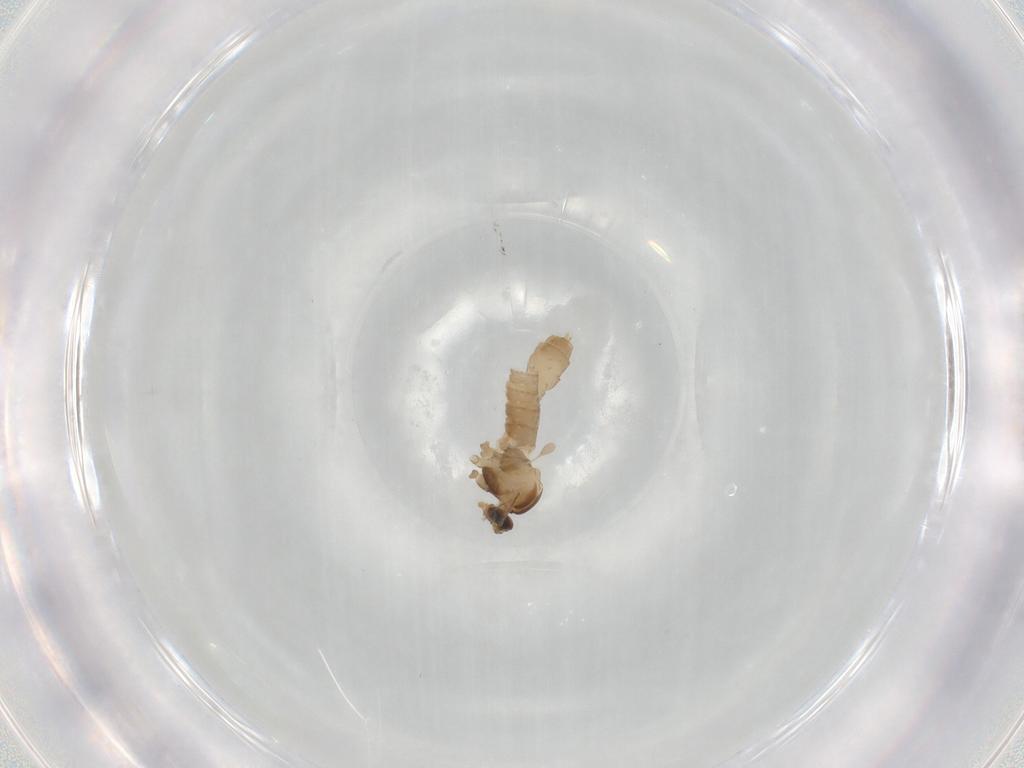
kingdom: Animalia
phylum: Arthropoda
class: Insecta
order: Diptera
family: Cecidomyiidae
